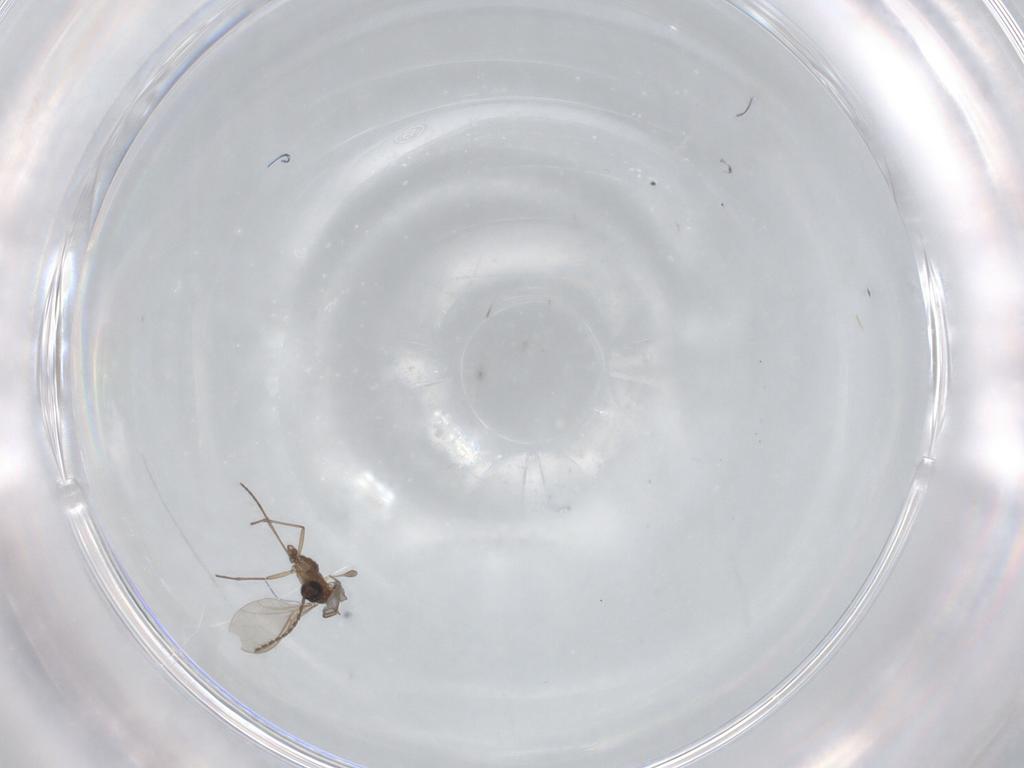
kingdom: Animalia
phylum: Arthropoda
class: Insecta
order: Diptera
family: Sciaridae
